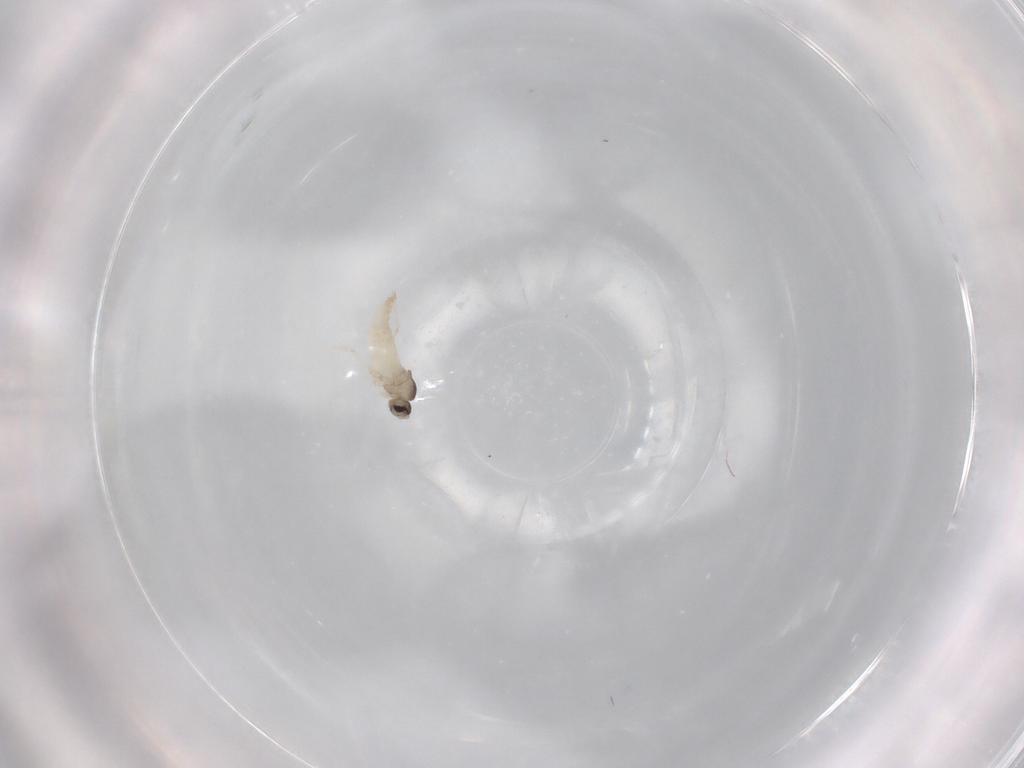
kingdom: Animalia
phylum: Arthropoda
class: Insecta
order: Diptera
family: Cecidomyiidae
